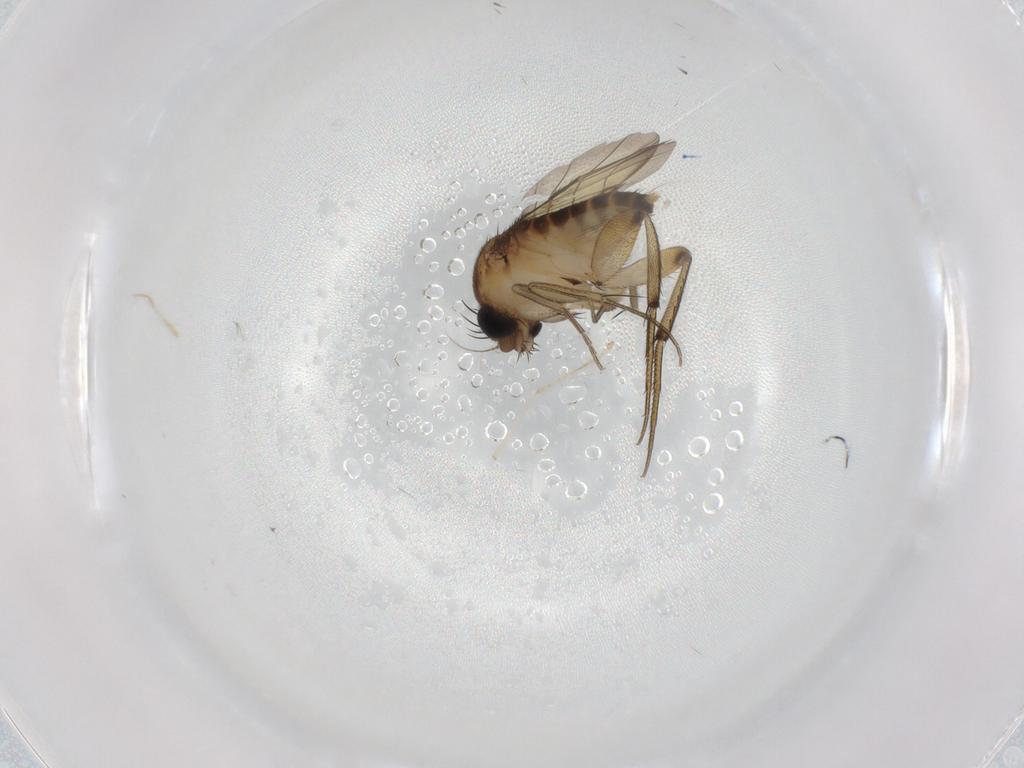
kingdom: Animalia
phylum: Arthropoda
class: Insecta
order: Diptera
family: Phoridae
